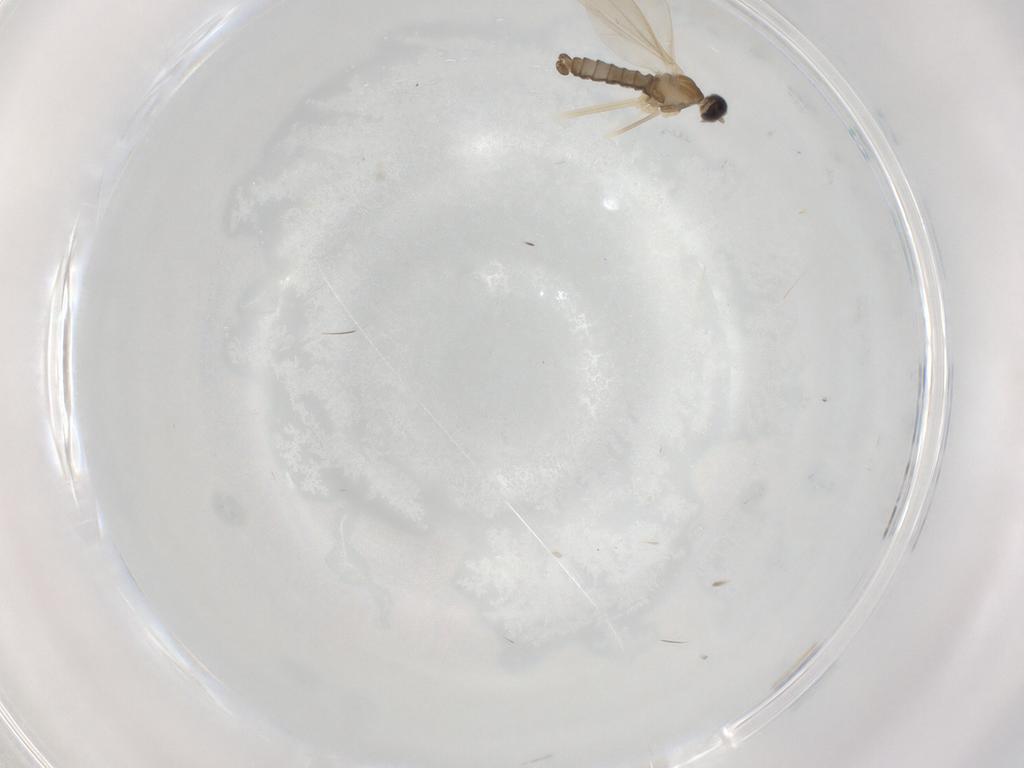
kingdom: Animalia
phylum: Arthropoda
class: Insecta
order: Diptera
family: Cecidomyiidae
